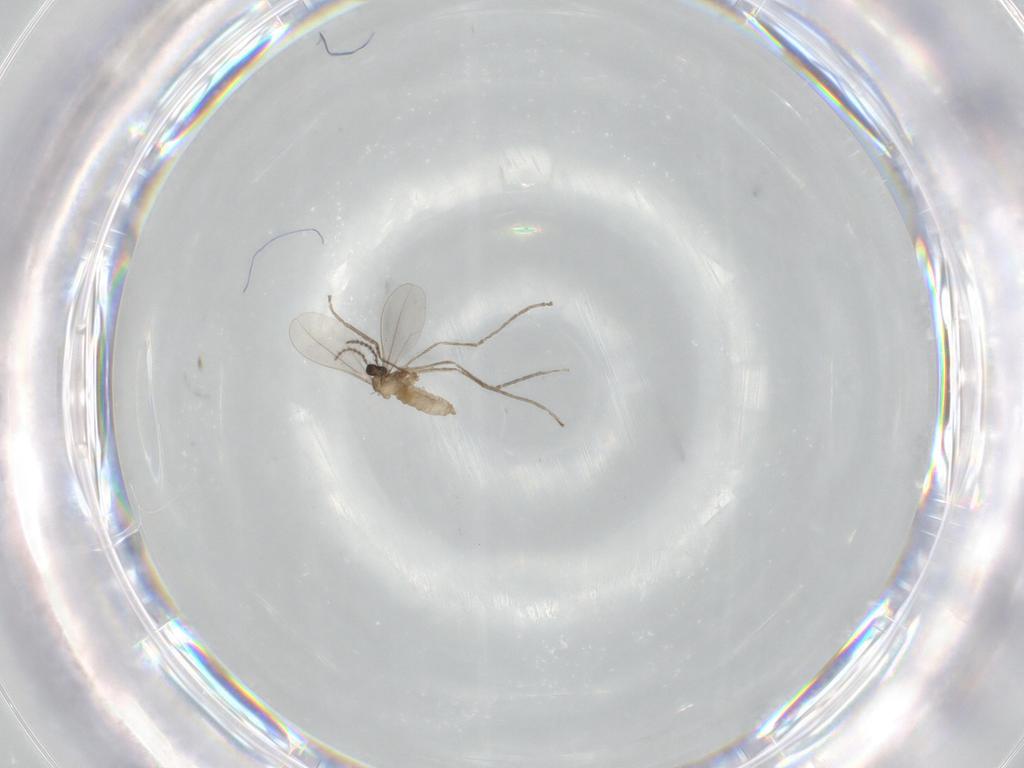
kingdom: Animalia
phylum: Arthropoda
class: Insecta
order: Diptera
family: Cecidomyiidae
